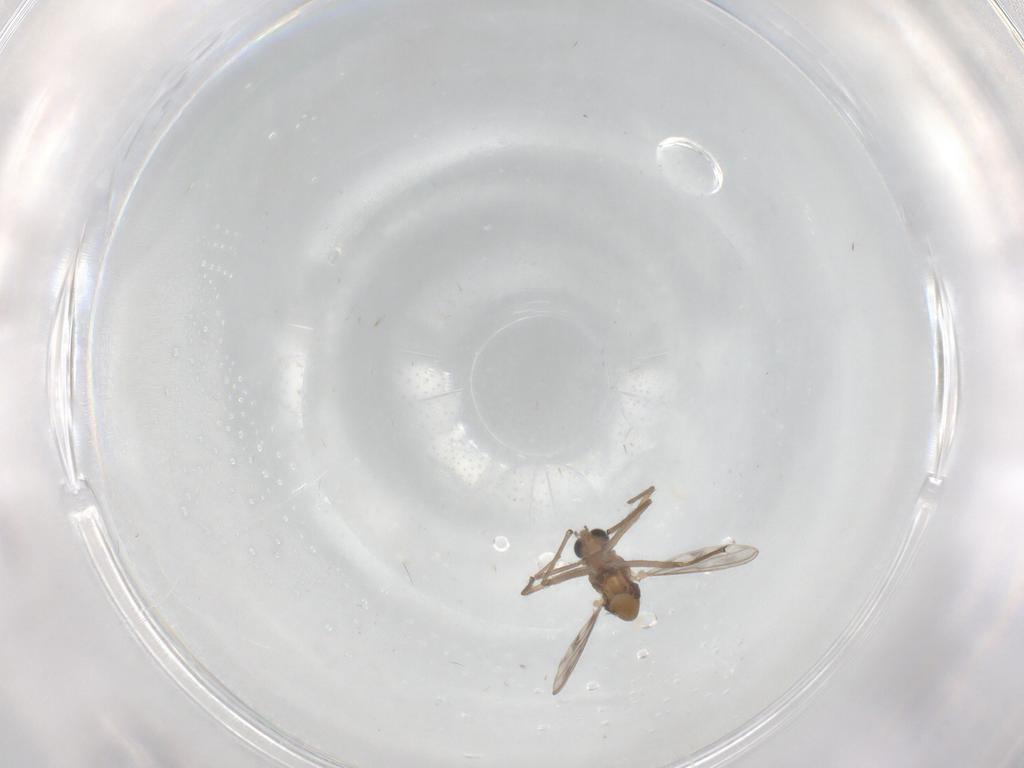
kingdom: Animalia
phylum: Arthropoda
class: Insecta
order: Diptera
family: Chironomidae
